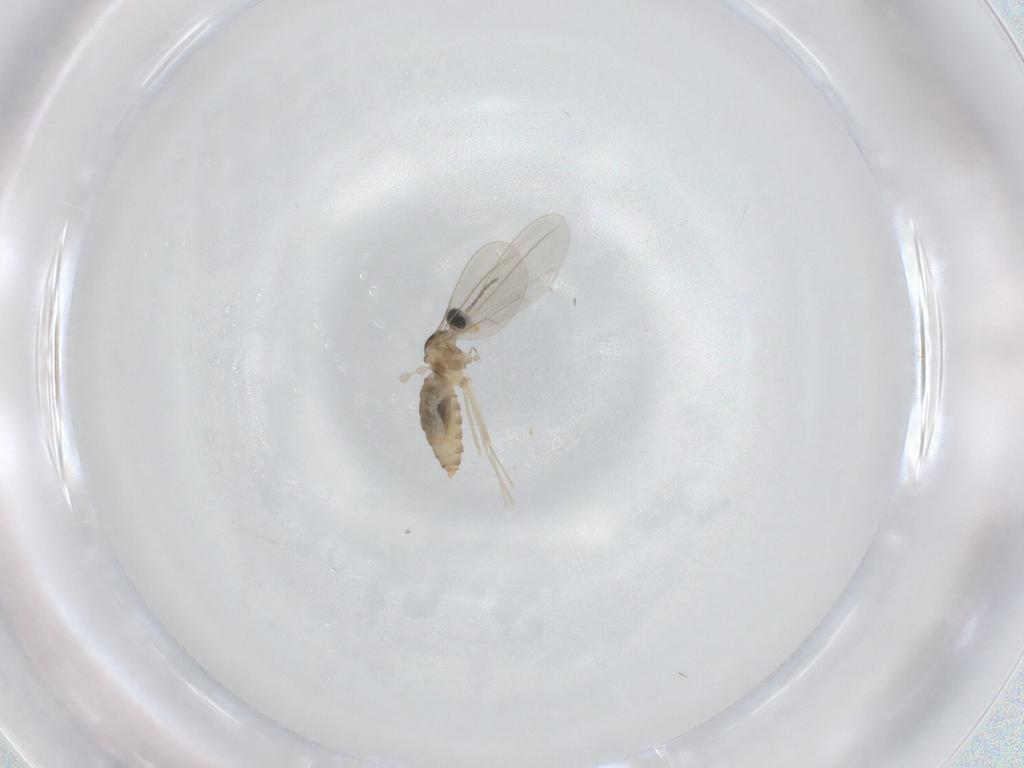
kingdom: Animalia
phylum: Arthropoda
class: Insecta
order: Diptera
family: Cecidomyiidae
